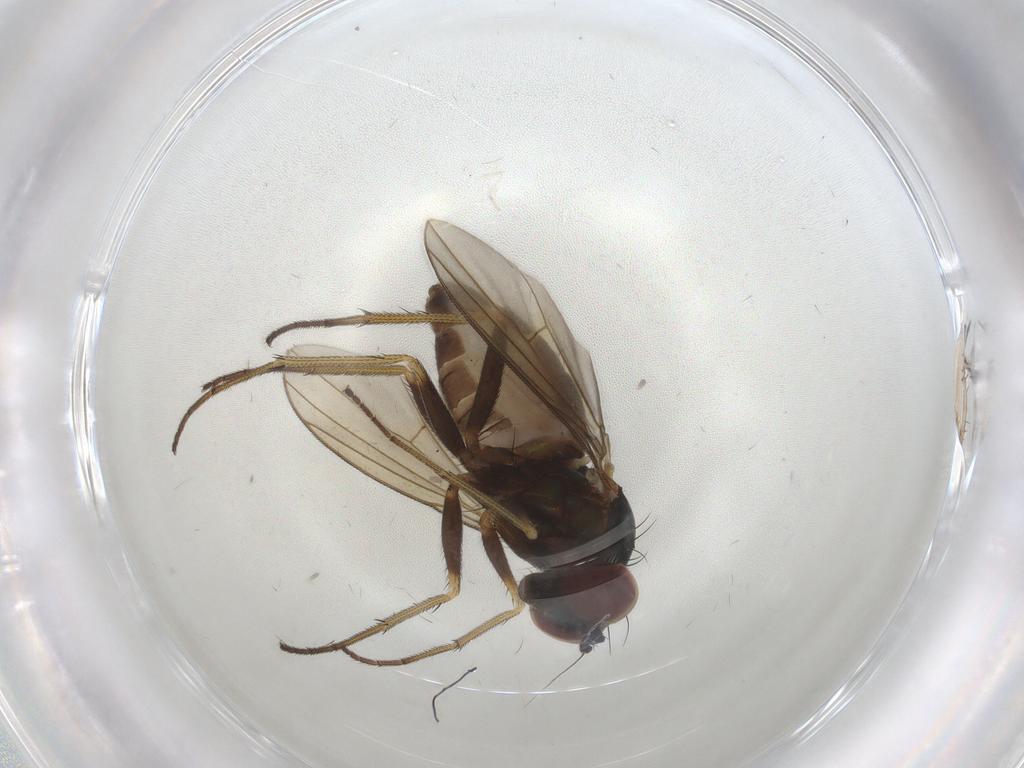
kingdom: Animalia
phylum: Arthropoda
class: Insecta
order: Diptera
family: Dolichopodidae
